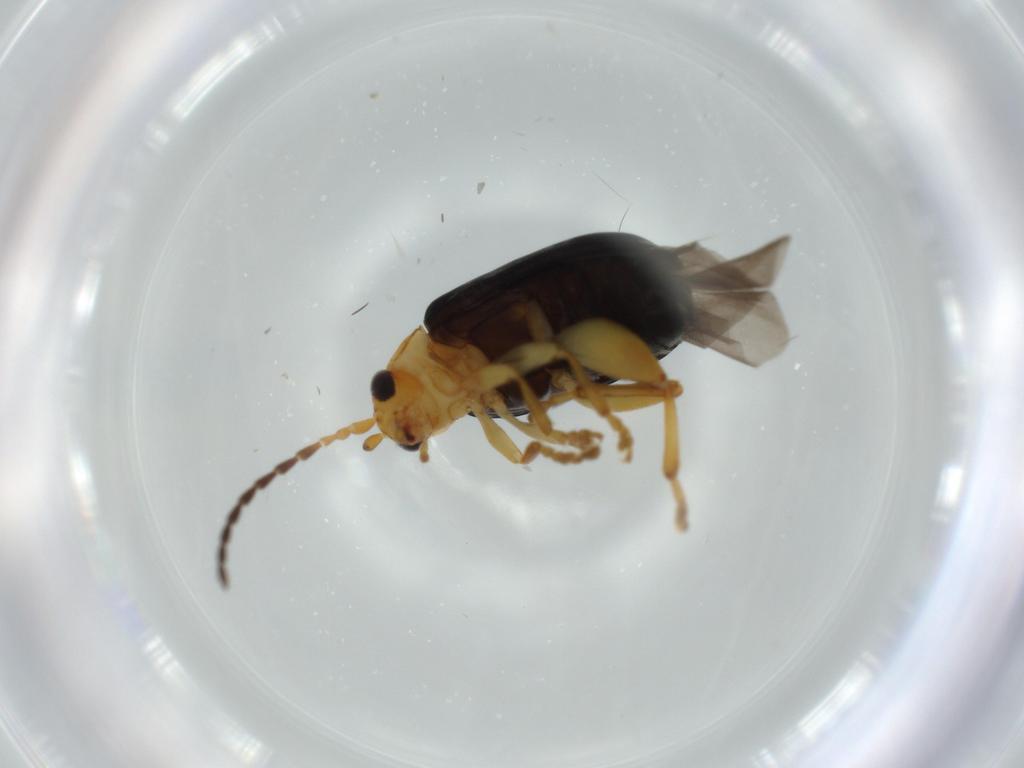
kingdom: Animalia
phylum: Arthropoda
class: Insecta
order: Coleoptera
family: Chrysomelidae
